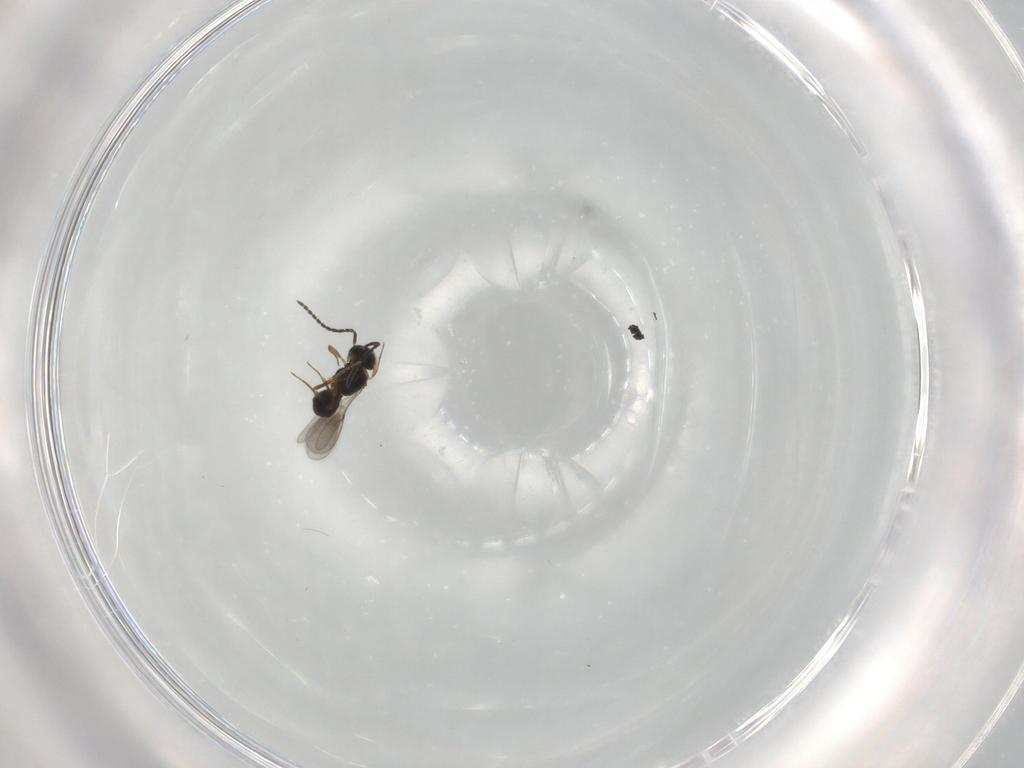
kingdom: Animalia
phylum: Arthropoda
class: Insecta
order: Hymenoptera
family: Scelionidae
